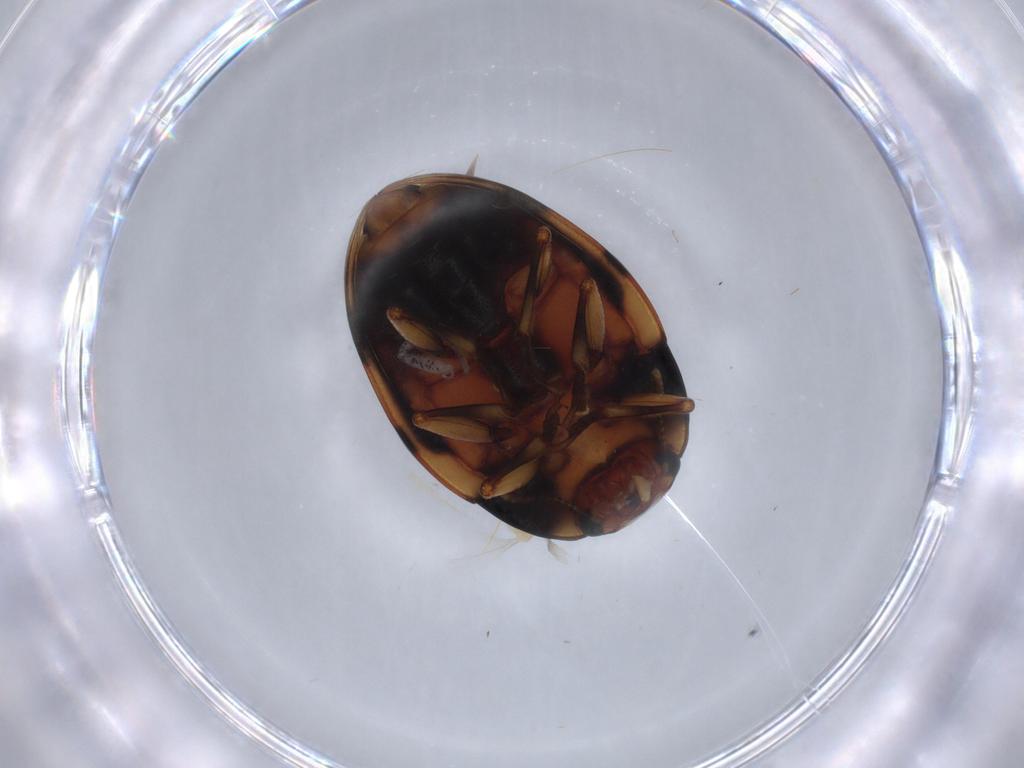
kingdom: Animalia
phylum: Arthropoda
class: Insecta
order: Coleoptera
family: Erotylidae
